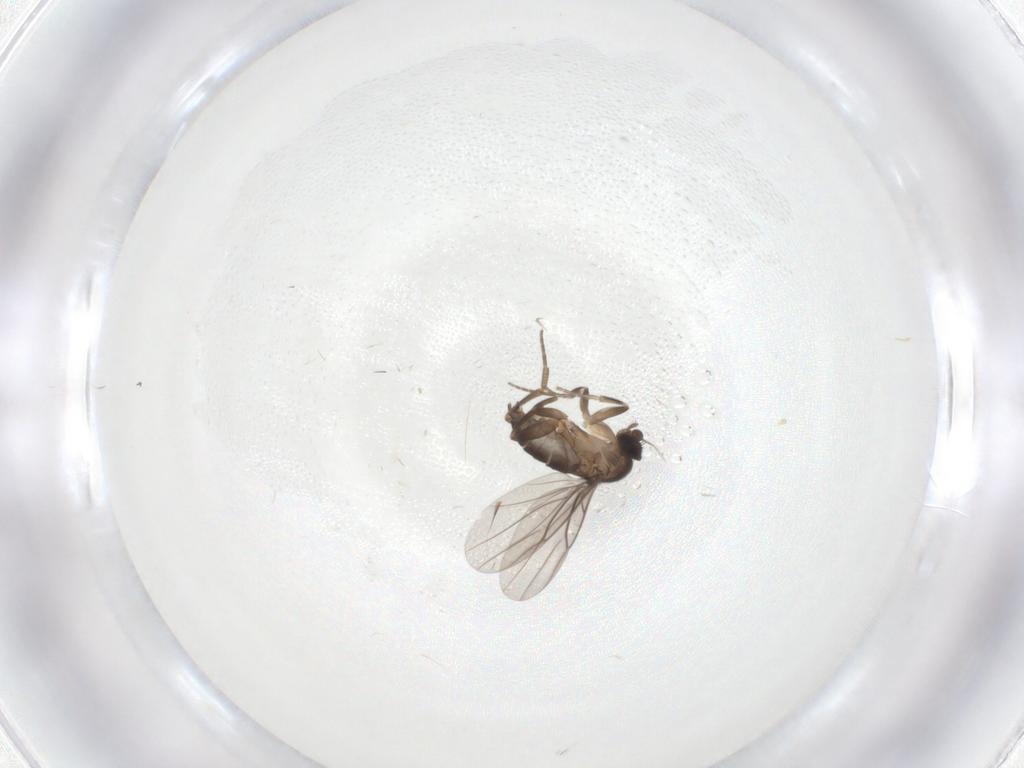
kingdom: Animalia
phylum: Arthropoda
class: Insecta
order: Diptera
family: Phoridae
